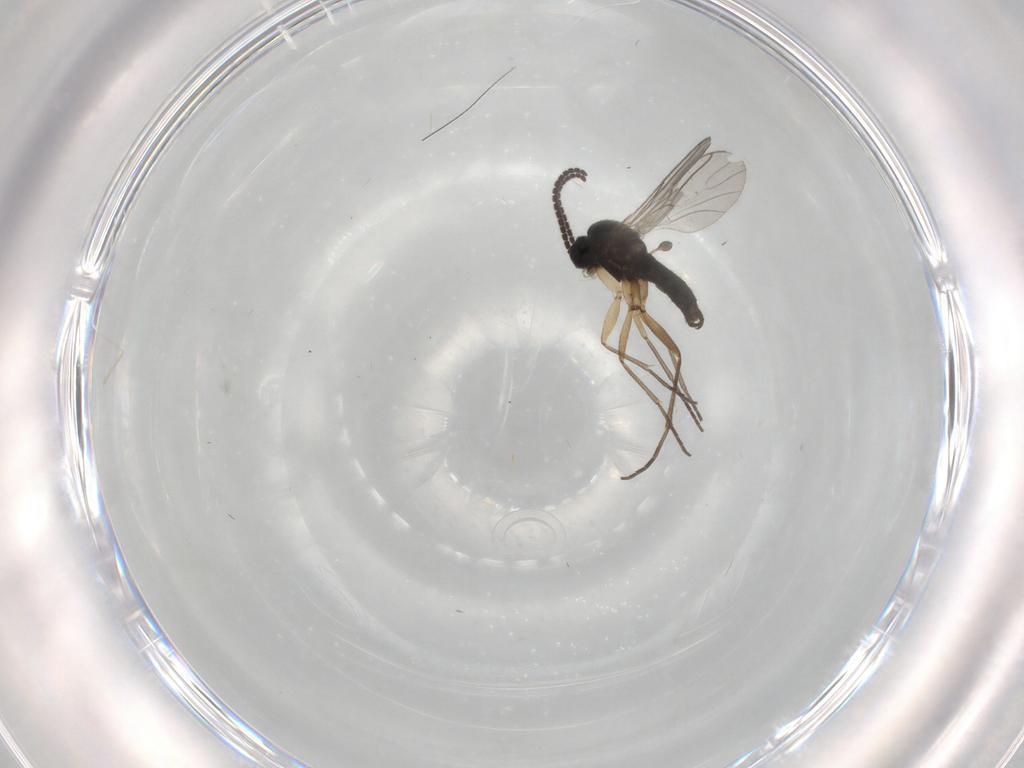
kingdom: Animalia
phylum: Arthropoda
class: Insecta
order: Diptera
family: Sciaridae
